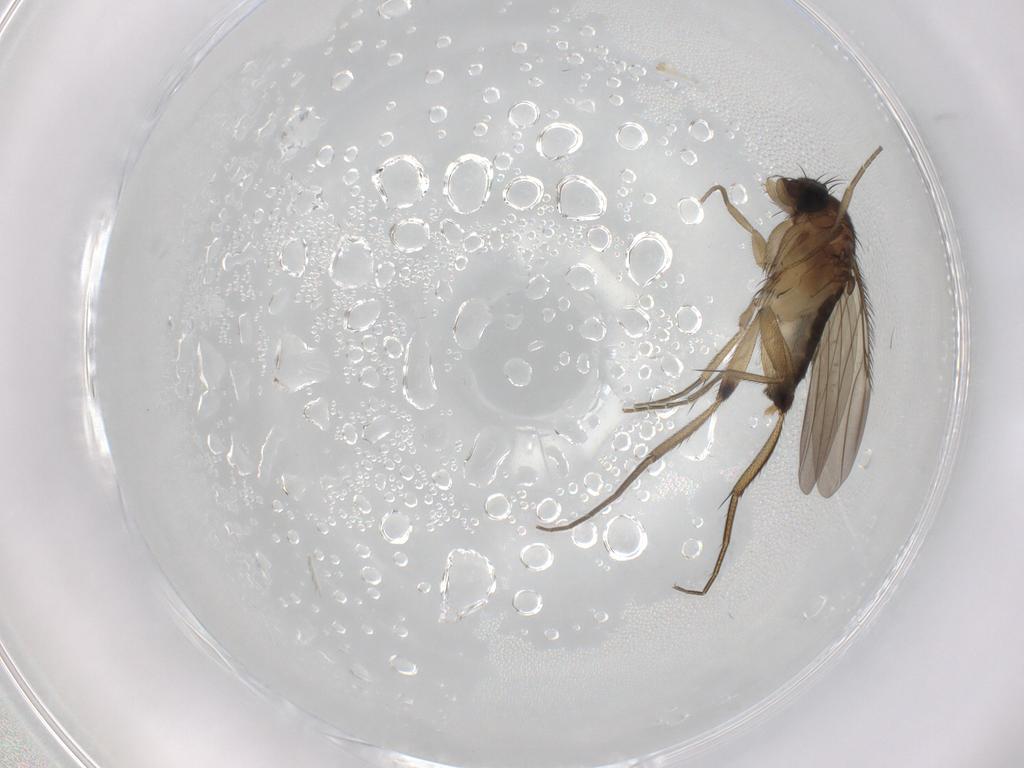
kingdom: Animalia
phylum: Arthropoda
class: Insecta
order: Diptera
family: Phoridae
